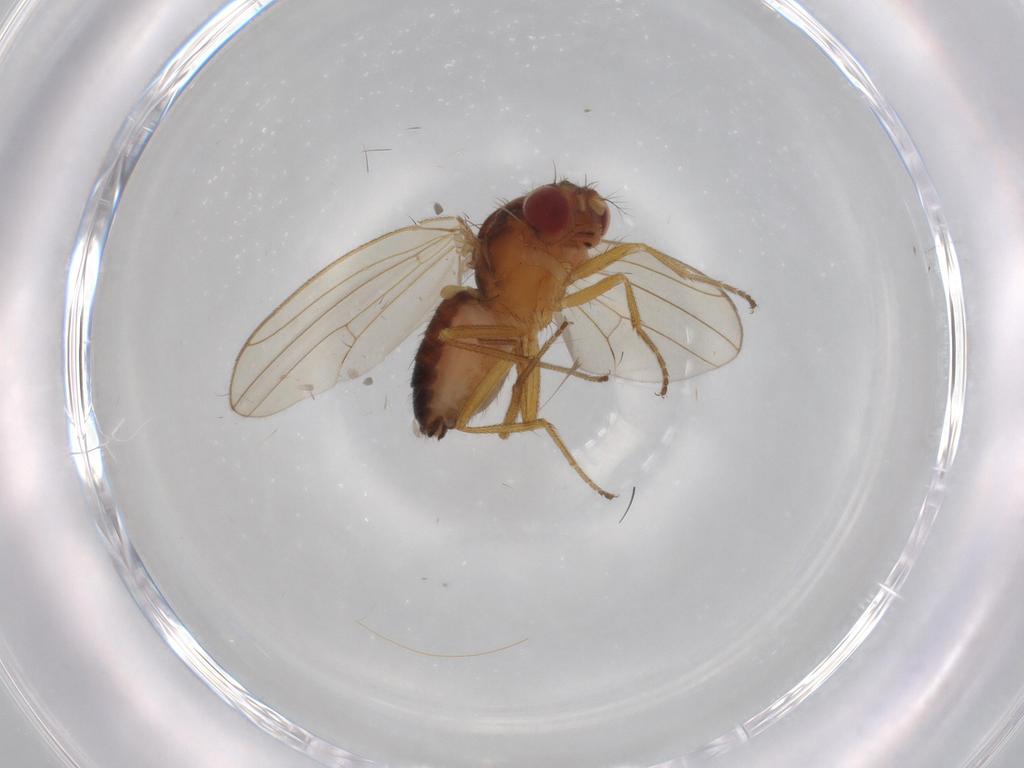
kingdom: Animalia
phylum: Arthropoda
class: Insecta
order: Diptera
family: Drosophilidae
